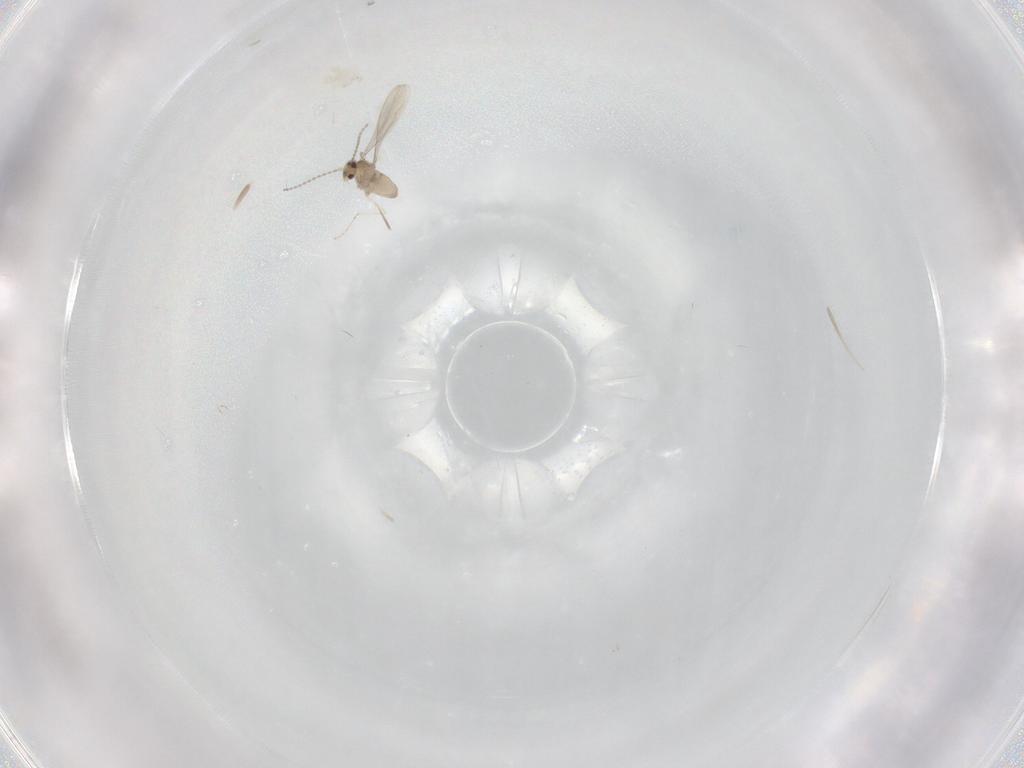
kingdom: Animalia
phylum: Arthropoda
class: Insecta
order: Diptera
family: Cecidomyiidae
